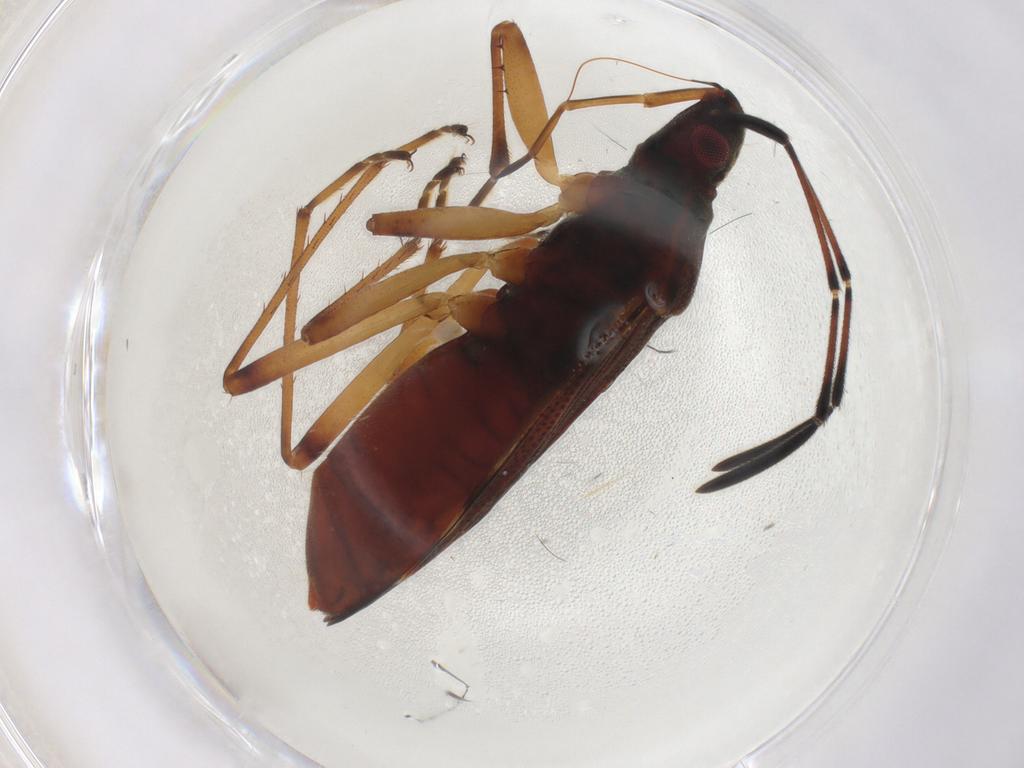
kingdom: Animalia
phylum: Arthropoda
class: Insecta
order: Hemiptera
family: Rhyparochromidae
